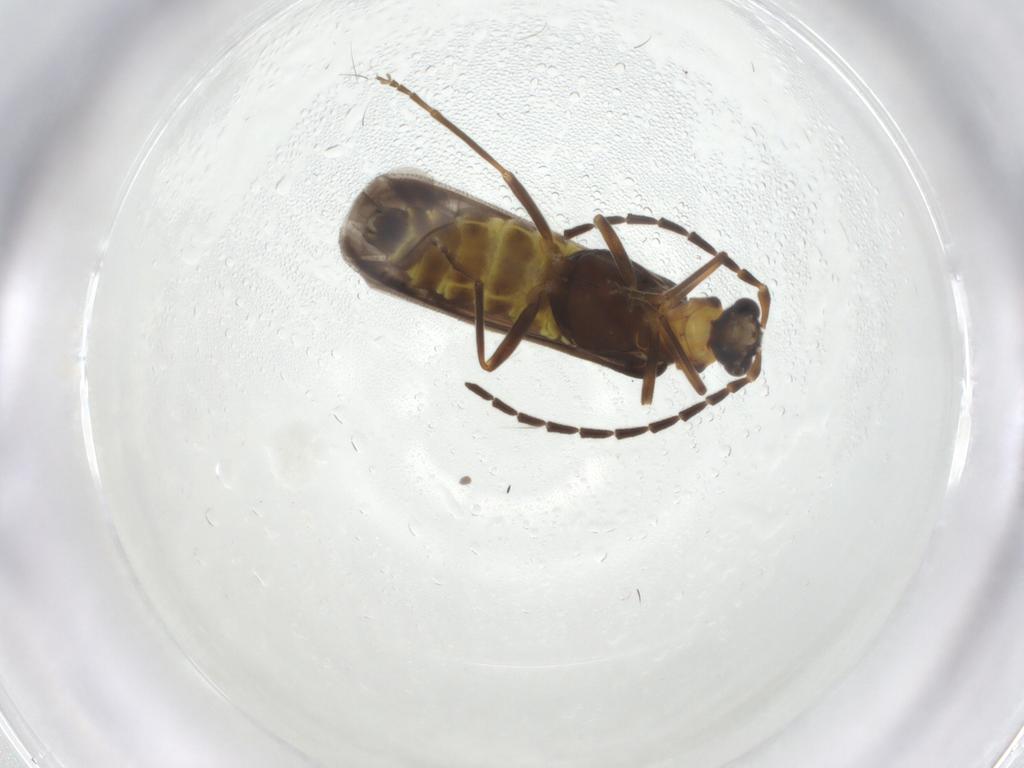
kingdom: Animalia
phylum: Arthropoda
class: Insecta
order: Coleoptera
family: Cantharidae
